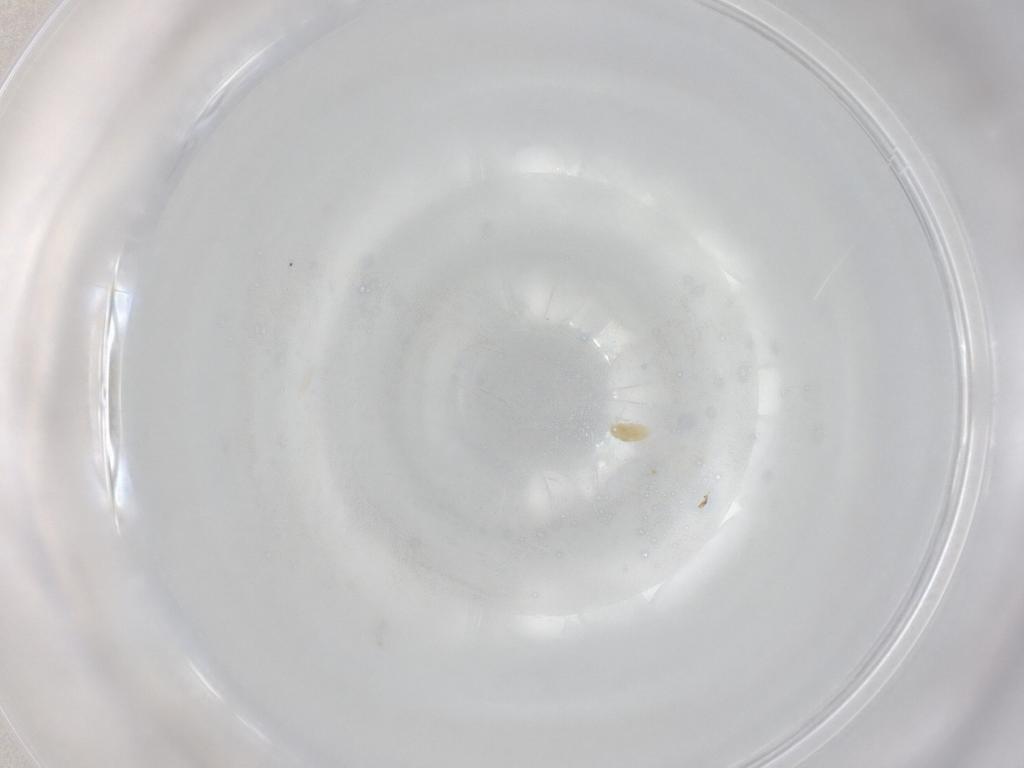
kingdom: Animalia
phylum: Arthropoda
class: Arachnida
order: Trombidiformes
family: Eupodidae
